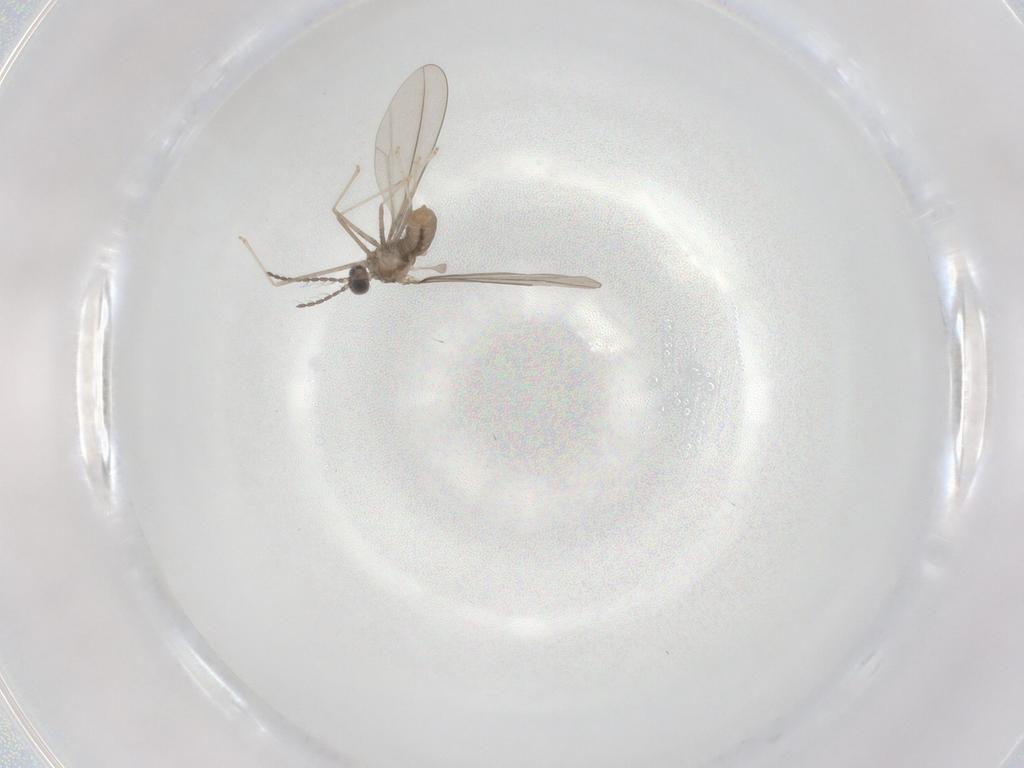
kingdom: Animalia
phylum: Arthropoda
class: Insecta
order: Diptera
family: Cecidomyiidae
